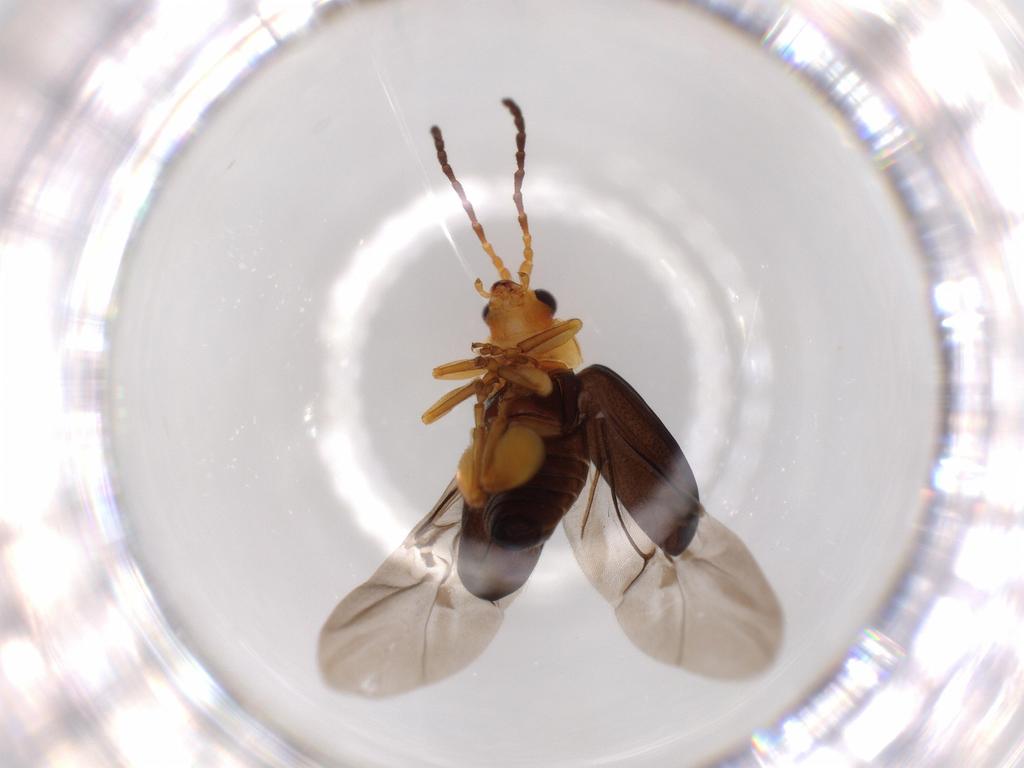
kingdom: Animalia
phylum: Arthropoda
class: Insecta
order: Coleoptera
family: Chrysomelidae
